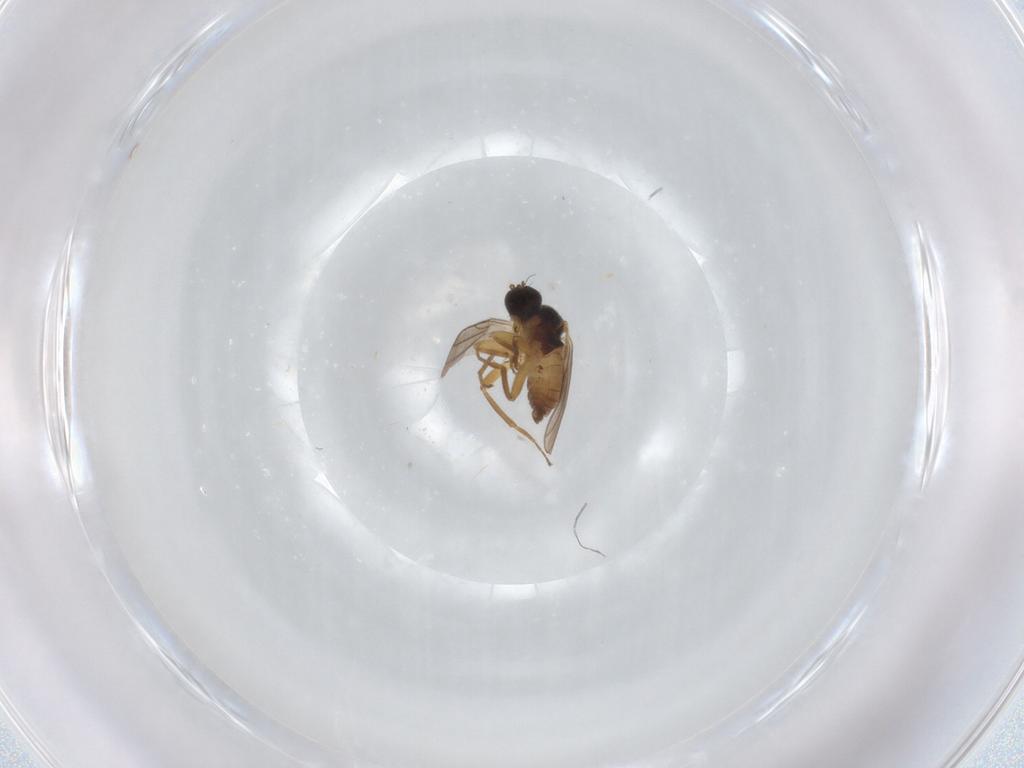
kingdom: Animalia
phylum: Arthropoda
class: Insecta
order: Diptera
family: Hybotidae
